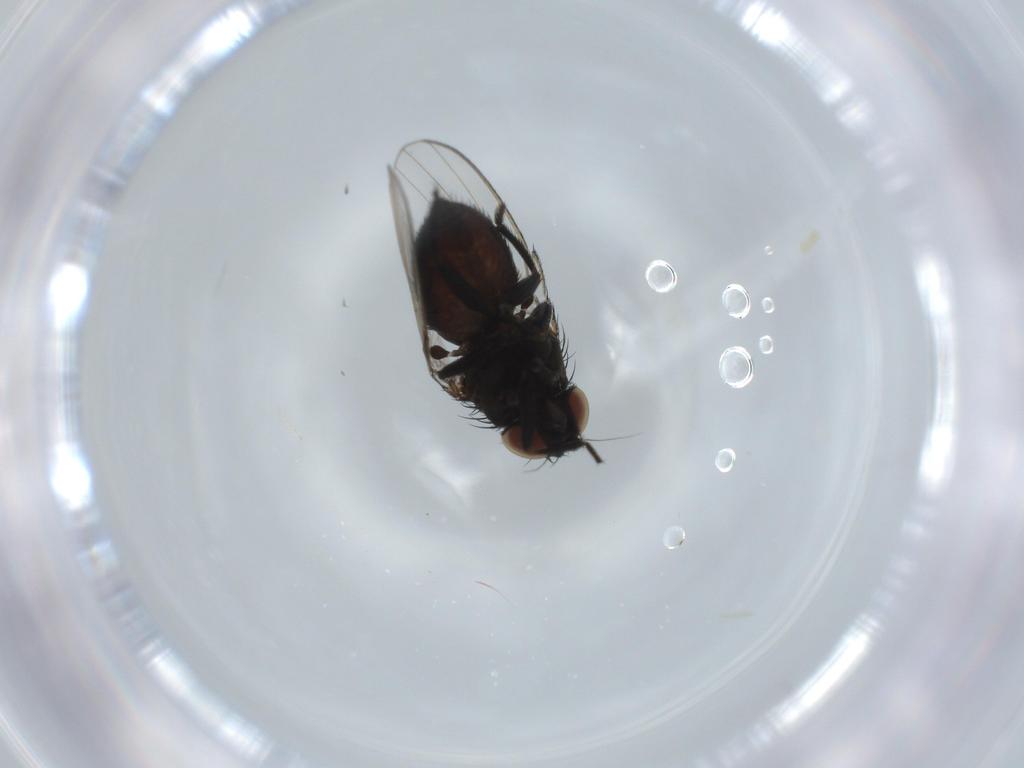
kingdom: Animalia
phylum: Arthropoda
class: Insecta
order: Diptera
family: Milichiidae
